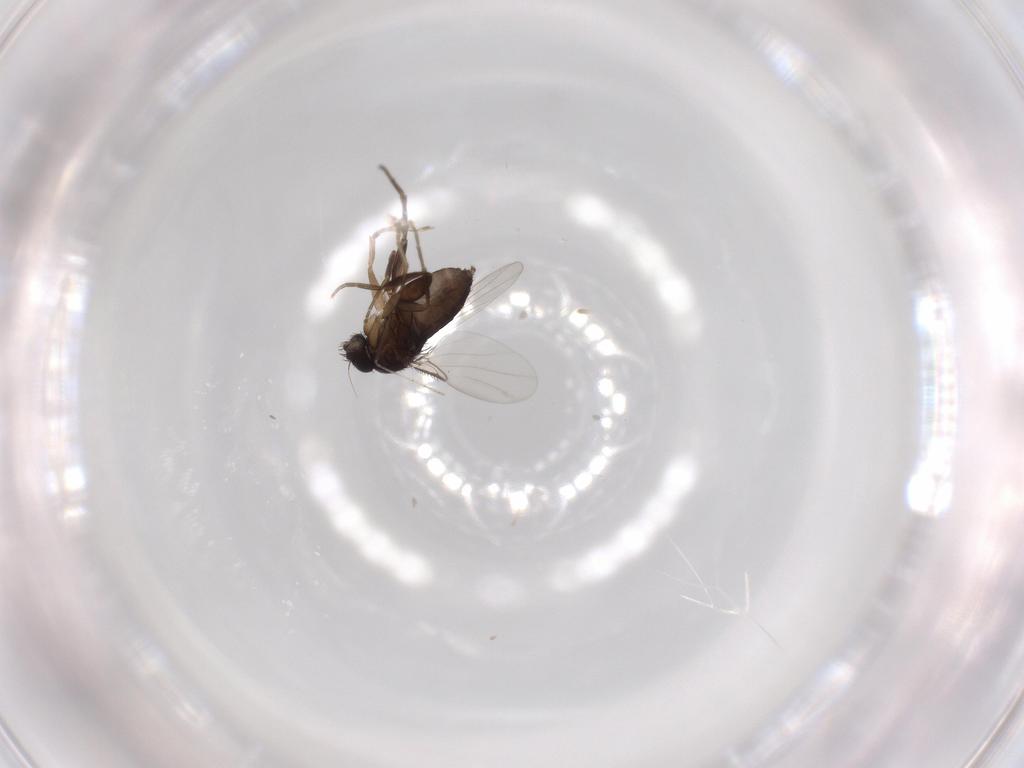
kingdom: Animalia
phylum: Arthropoda
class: Insecta
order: Diptera
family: Phoridae
